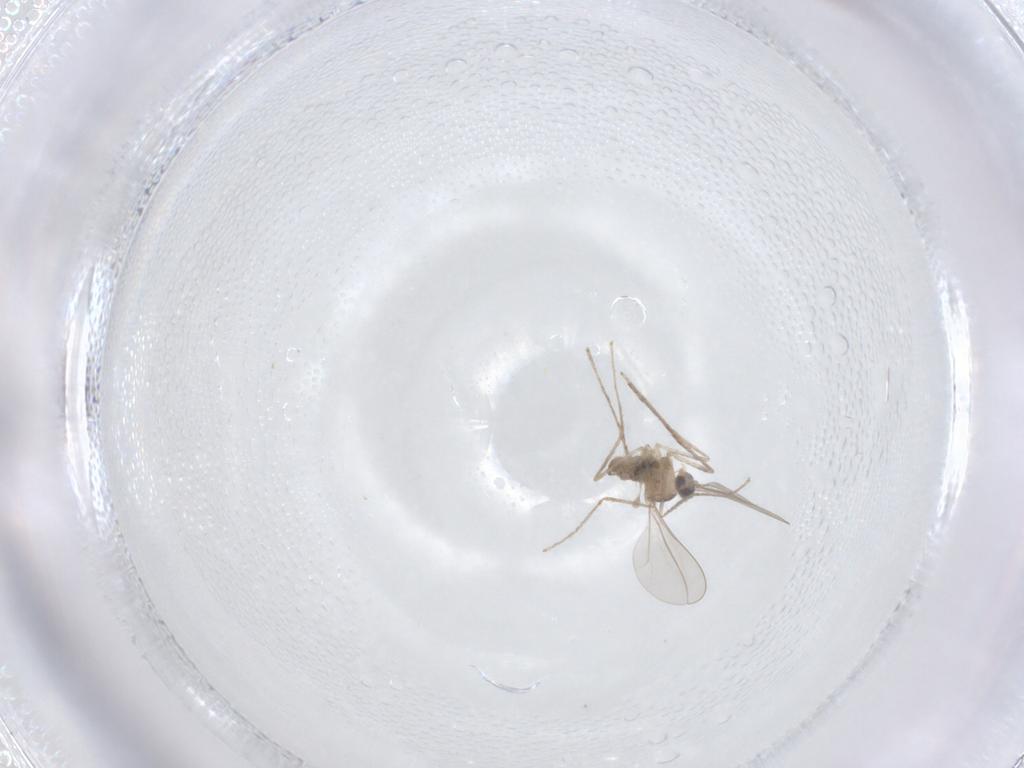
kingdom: Animalia
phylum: Arthropoda
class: Insecta
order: Diptera
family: Cecidomyiidae
